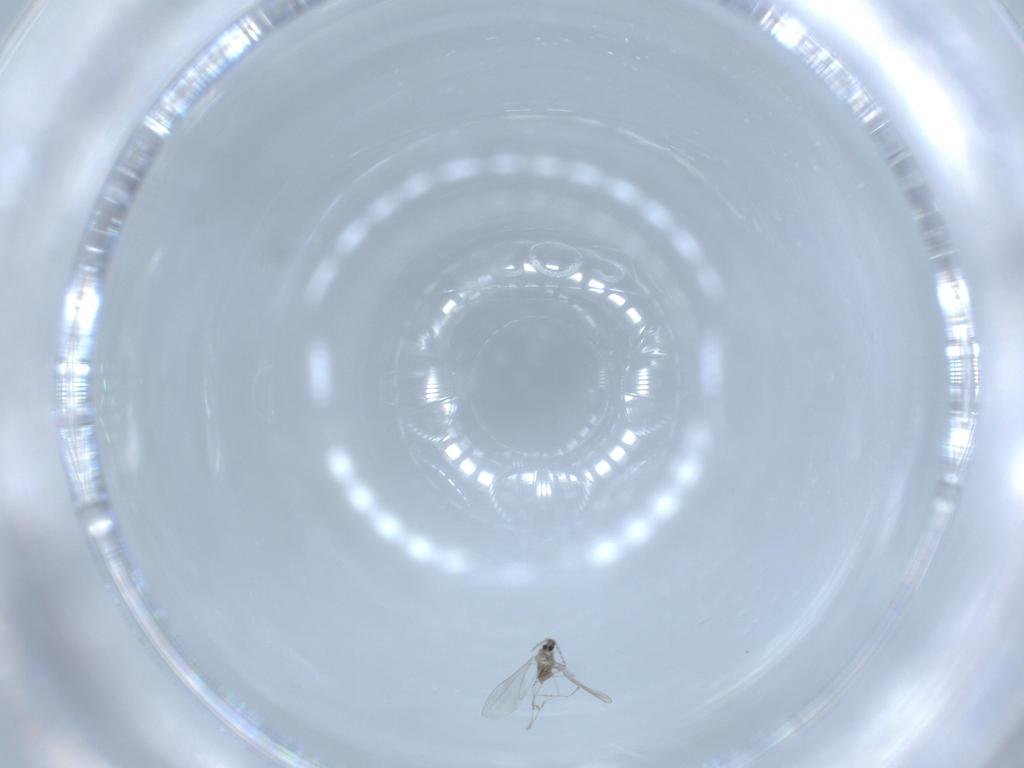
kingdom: Animalia
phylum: Arthropoda
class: Insecta
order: Diptera
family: Cecidomyiidae
